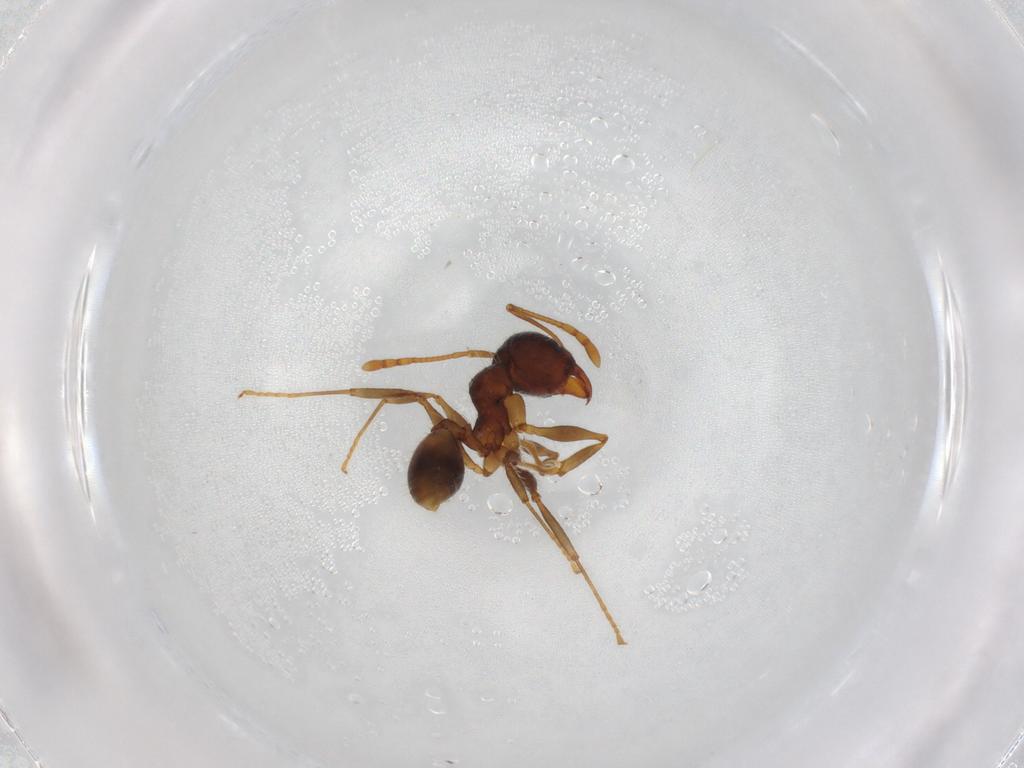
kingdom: Animalia
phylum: Arthropoda
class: Insecta
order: Hymenoptera
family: Formicidae
